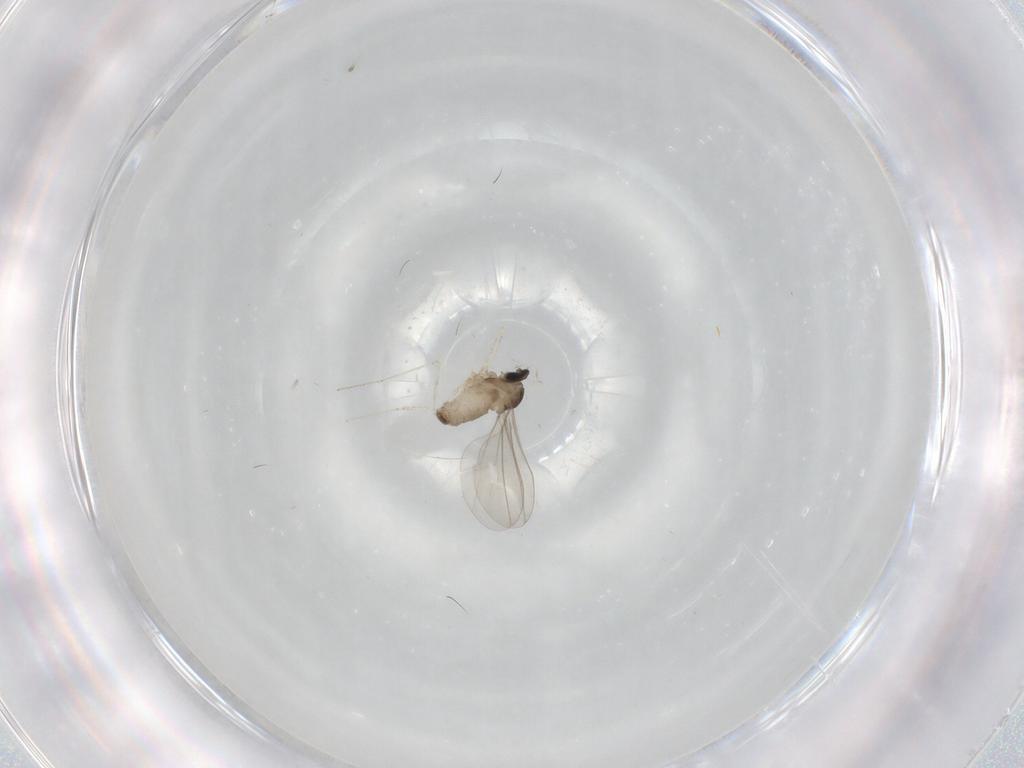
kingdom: Animalia
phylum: Arthropoda
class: Insecta
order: Diptera
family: Cecidomyiidae
